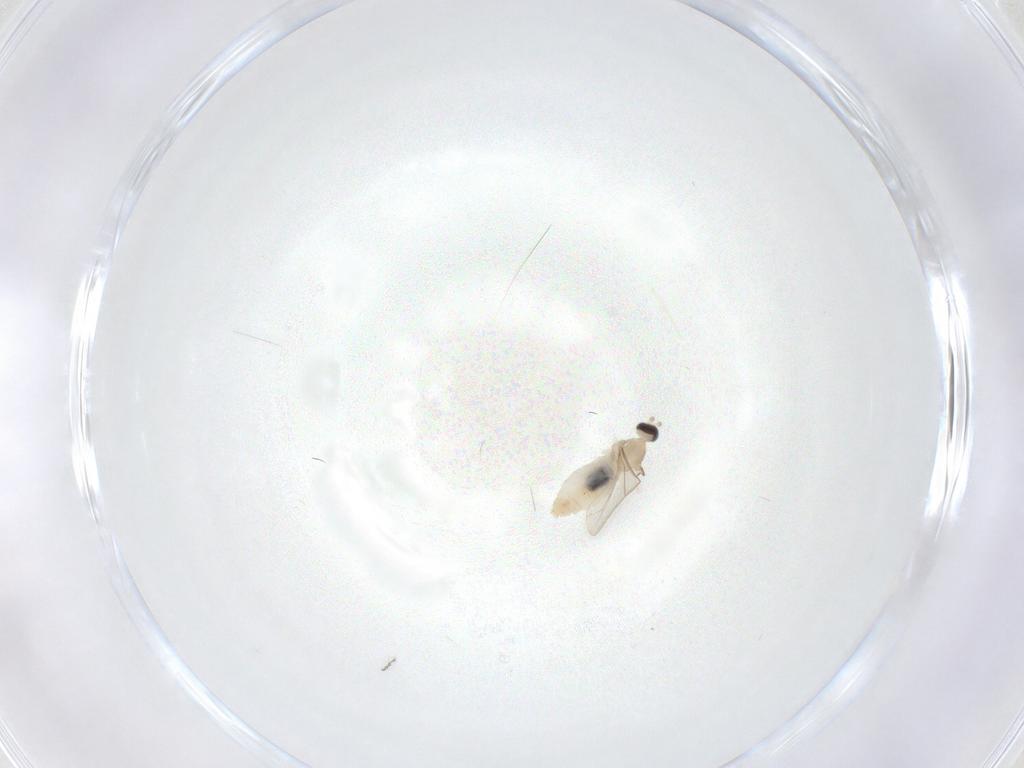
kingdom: Animalia
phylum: Arthropoda
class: Insecta
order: Diptera
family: Cecidomyiidae
